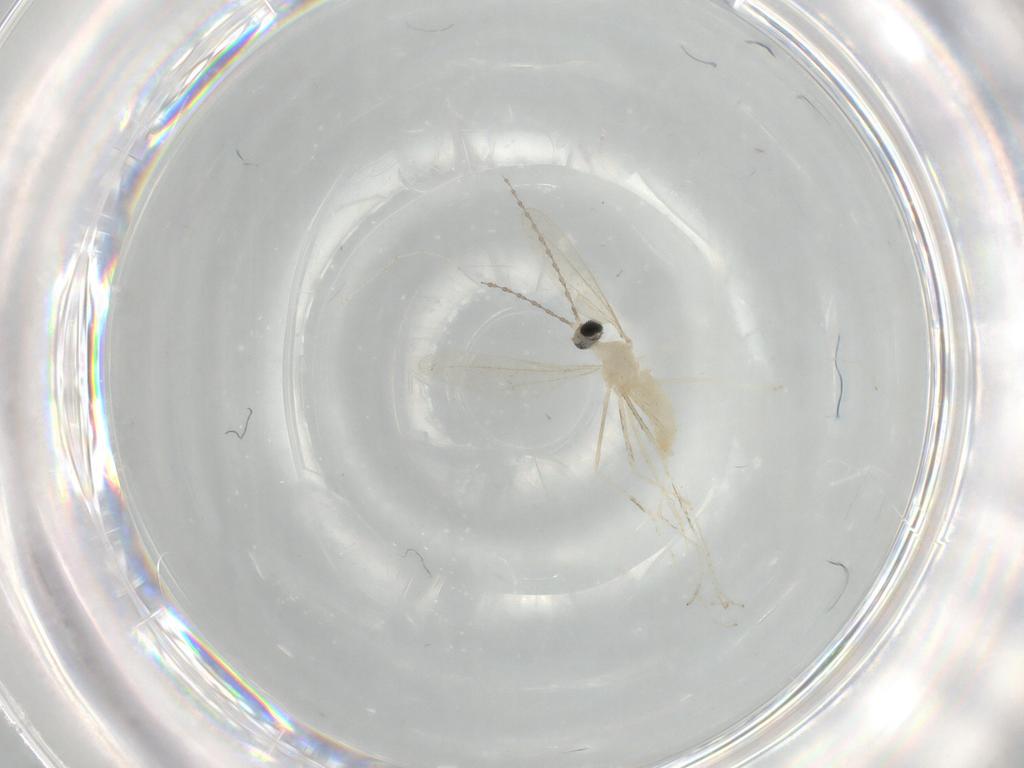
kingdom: Animalia
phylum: Arthropoda
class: Insecta
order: Diptera
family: Cecidomyiidae
